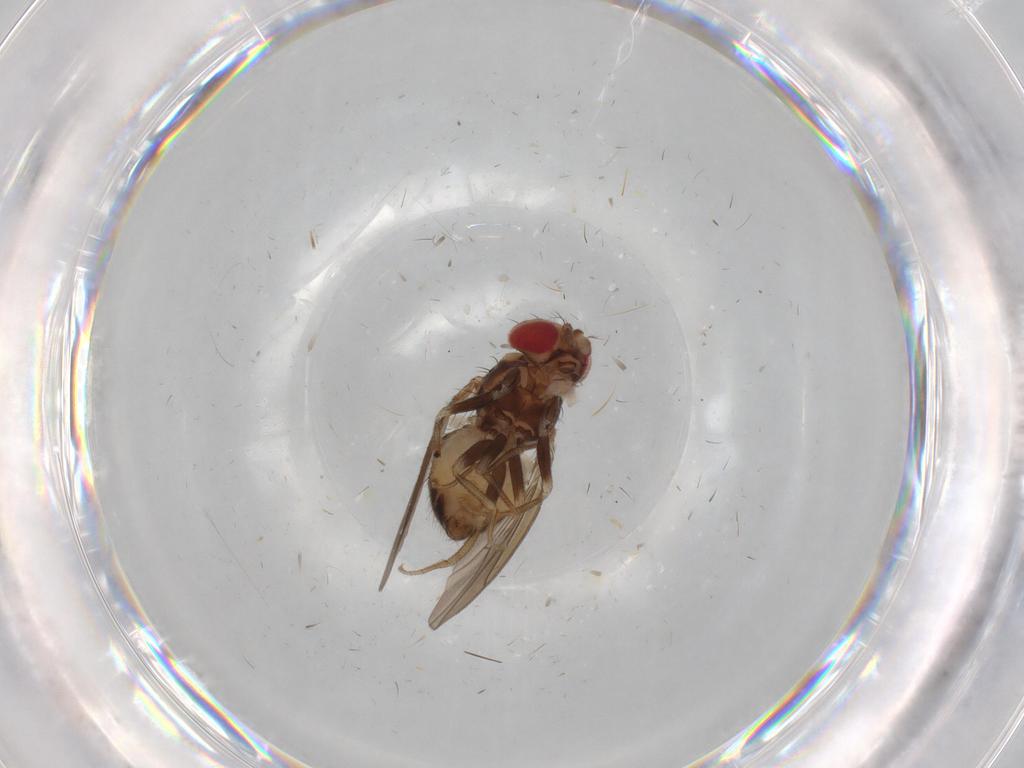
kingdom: Animalia
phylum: Arthropoda
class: Insecta
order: Diptera
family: Drosophilidae
